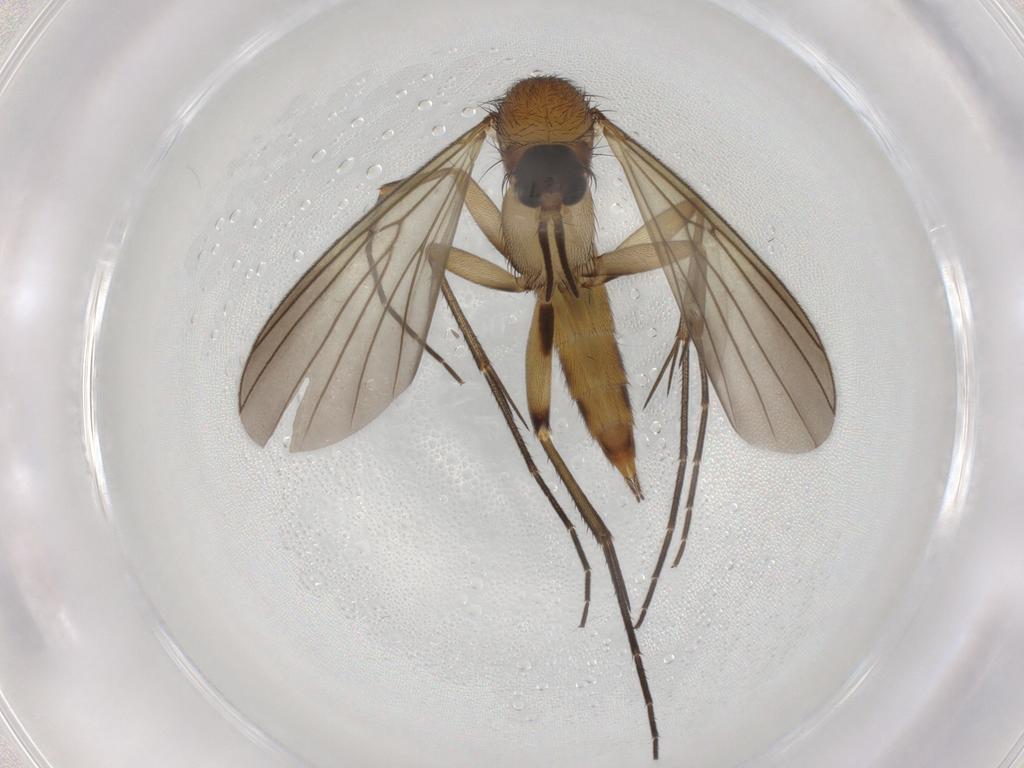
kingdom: Animalia
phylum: Arthropoda
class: Insecta
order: Diptera
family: Mycetophilidae
